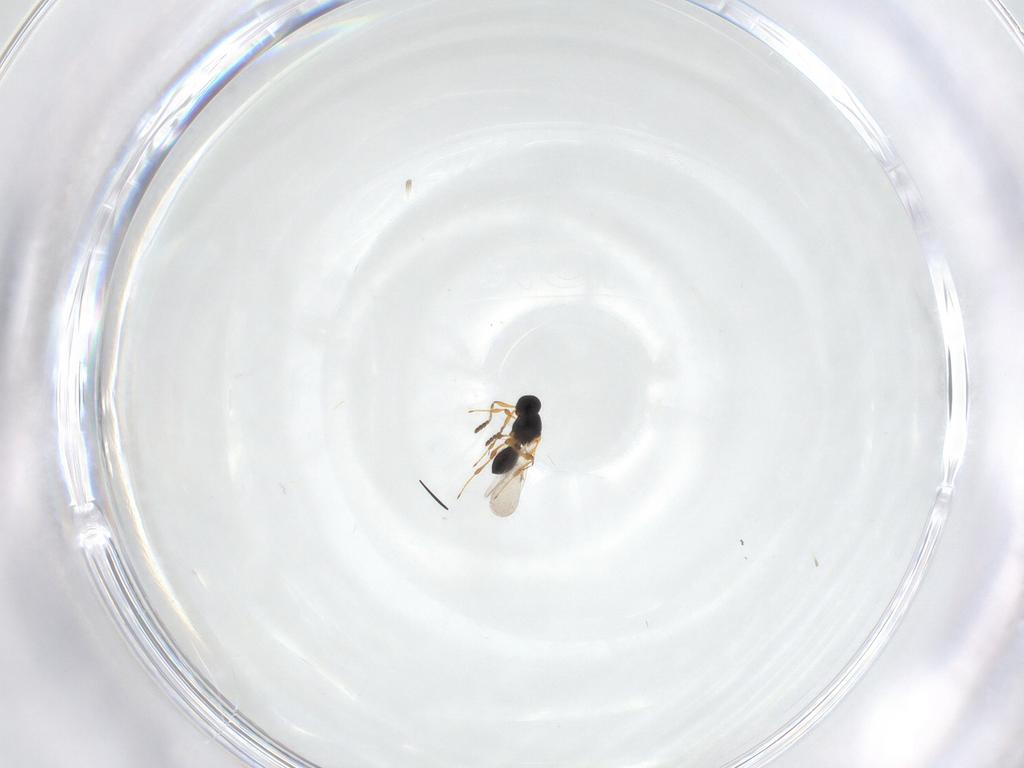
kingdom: Animalia
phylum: Arthropoda
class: Insecta
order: Hymenoptera
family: Platygastridae
